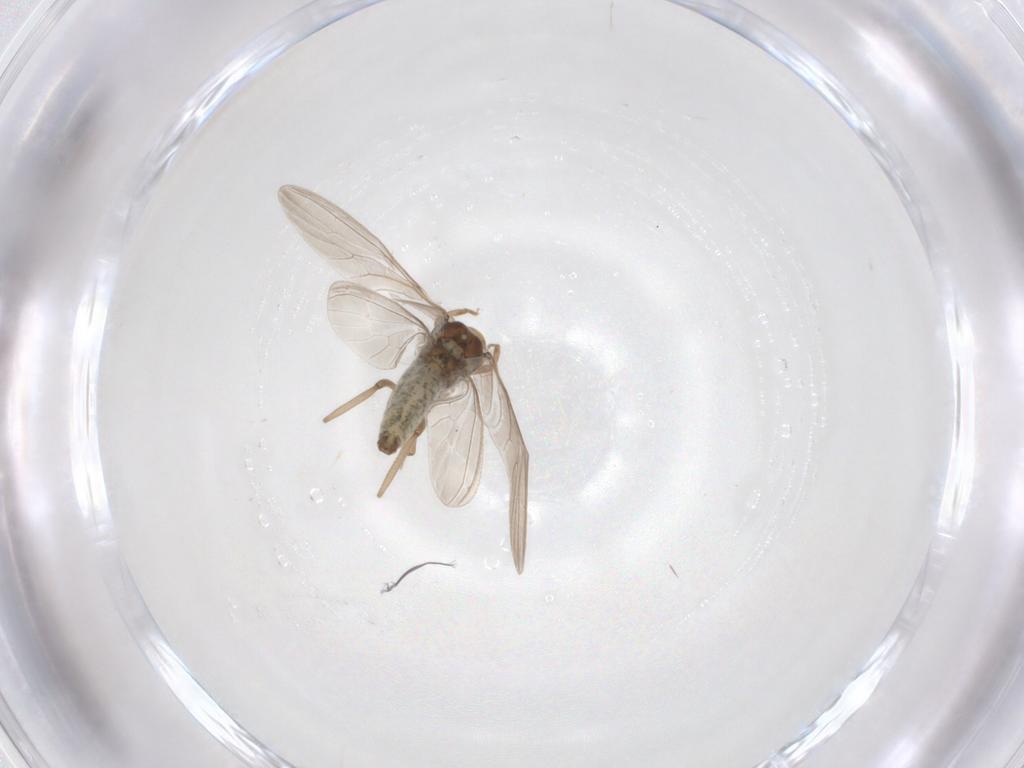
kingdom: Animalia
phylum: Arthropoda
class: Insecta
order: Neuroptera
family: Coniopterygidae
